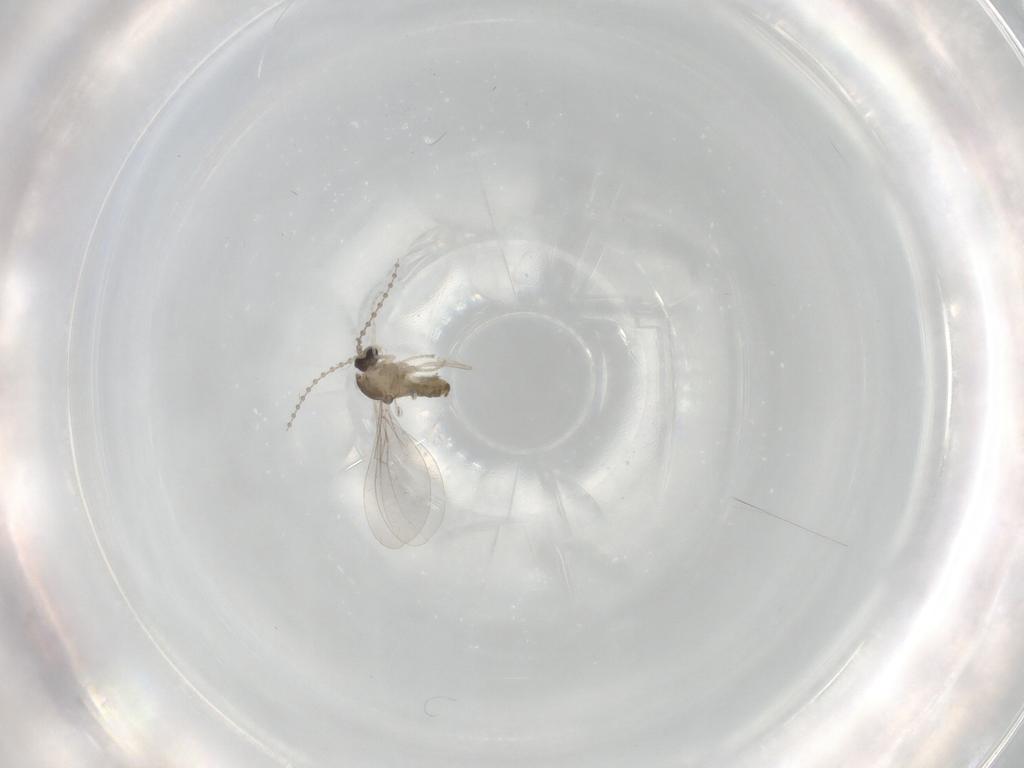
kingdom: Animalia
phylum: Arthropoda
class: Insecta
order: Diptera
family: Cecidomyiidae
